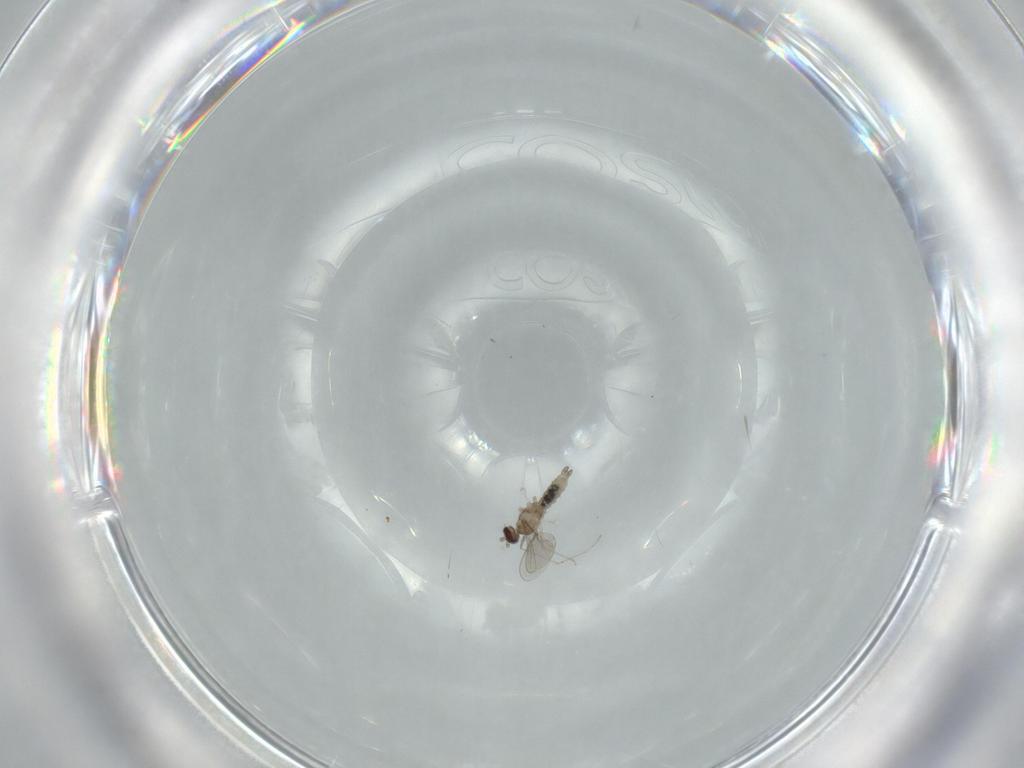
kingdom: Animalia
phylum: Arthropoda
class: Insecta
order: Diptera
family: Cecidomyiidae
